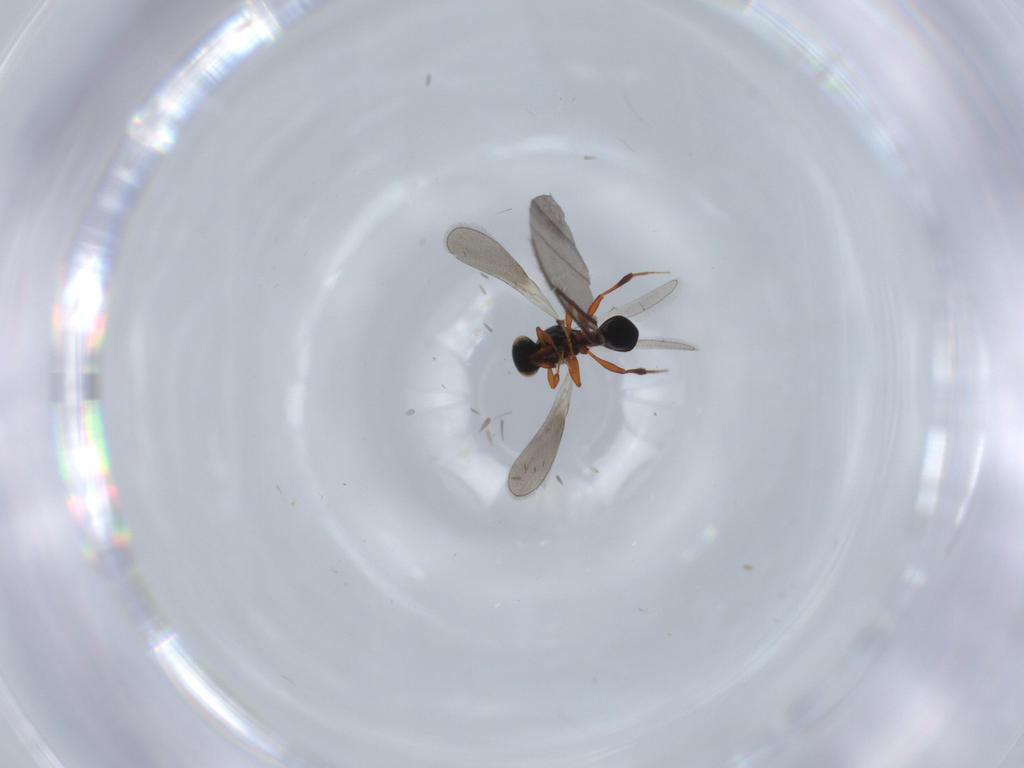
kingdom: Animalia
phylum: Arthropoda
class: Insecta
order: Hymenoptera
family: Platygastridae
